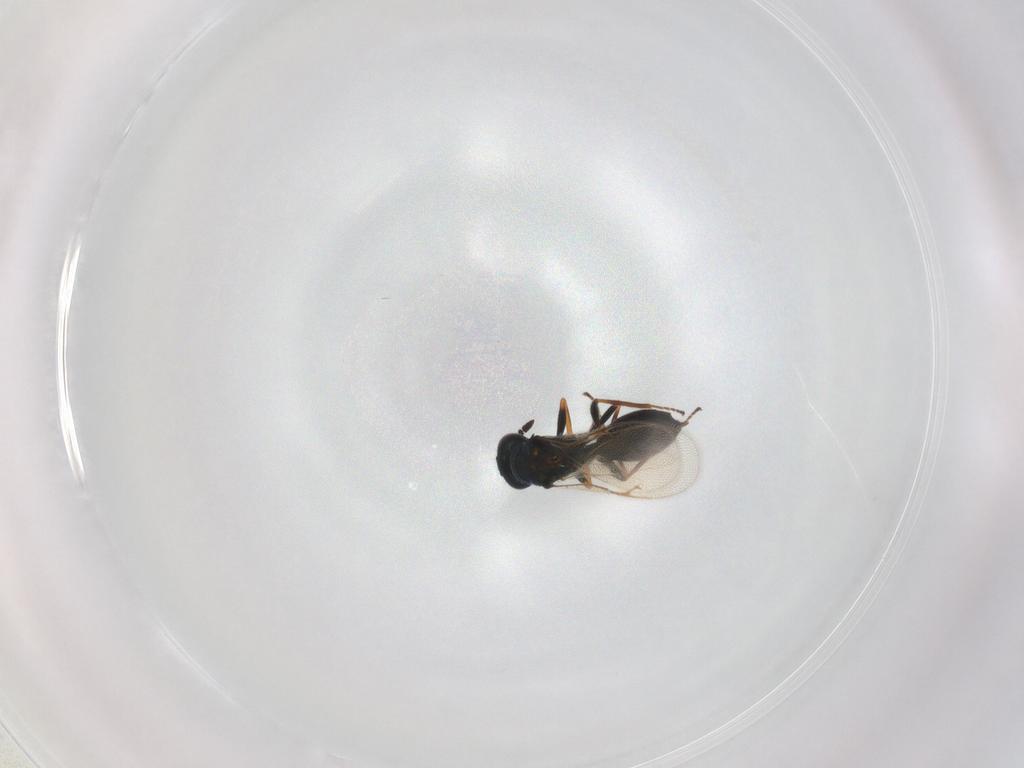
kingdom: Animalia
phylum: Arthropoda
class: Insecta
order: Hymenoptera
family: Pteromalidae
